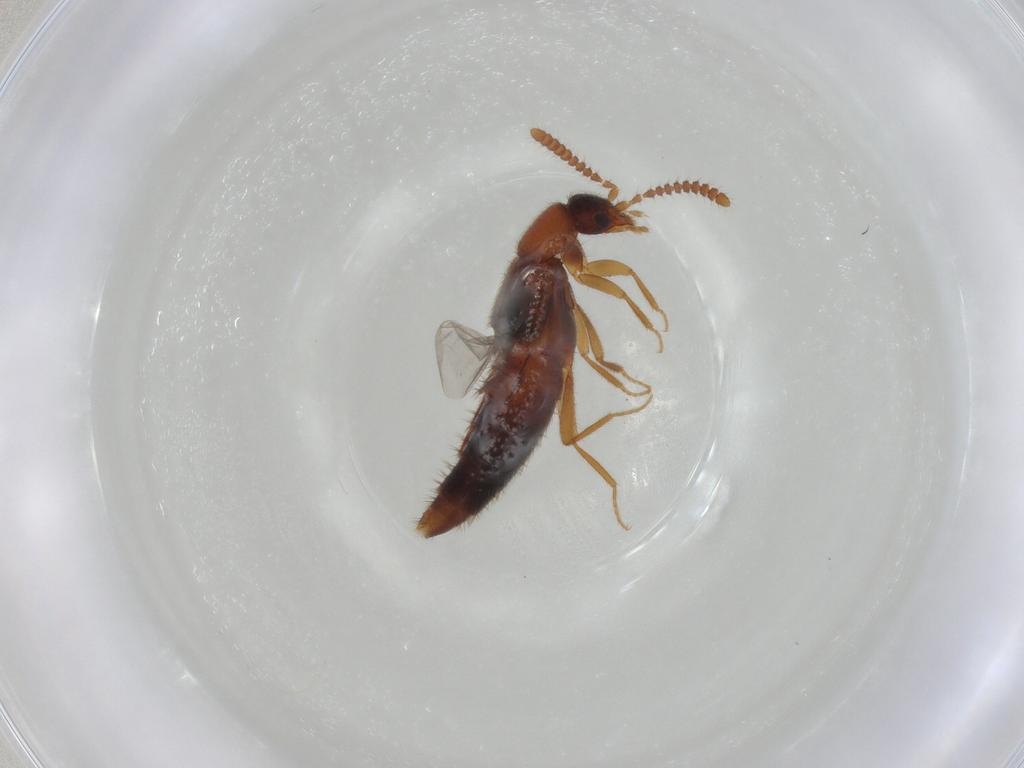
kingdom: Animalia
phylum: Arthropoda
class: Insecta
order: Coleoptera
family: Staphylinidae
